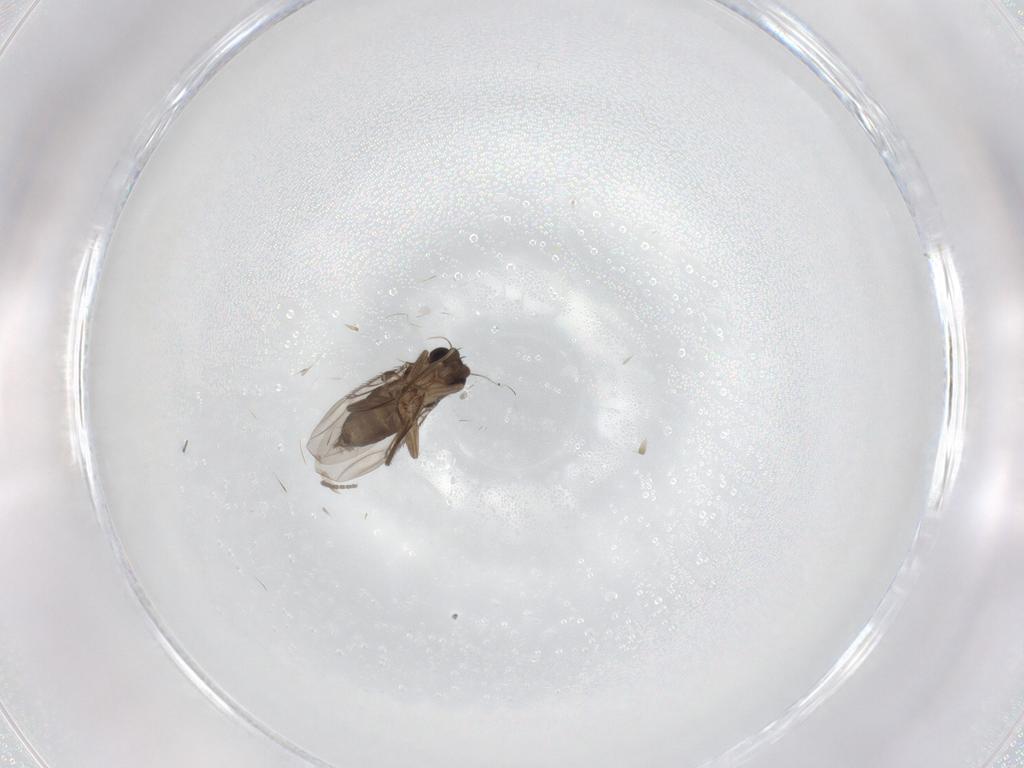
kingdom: Animalia
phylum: Arthropoda
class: Insecta
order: Diptera
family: Phoridae
